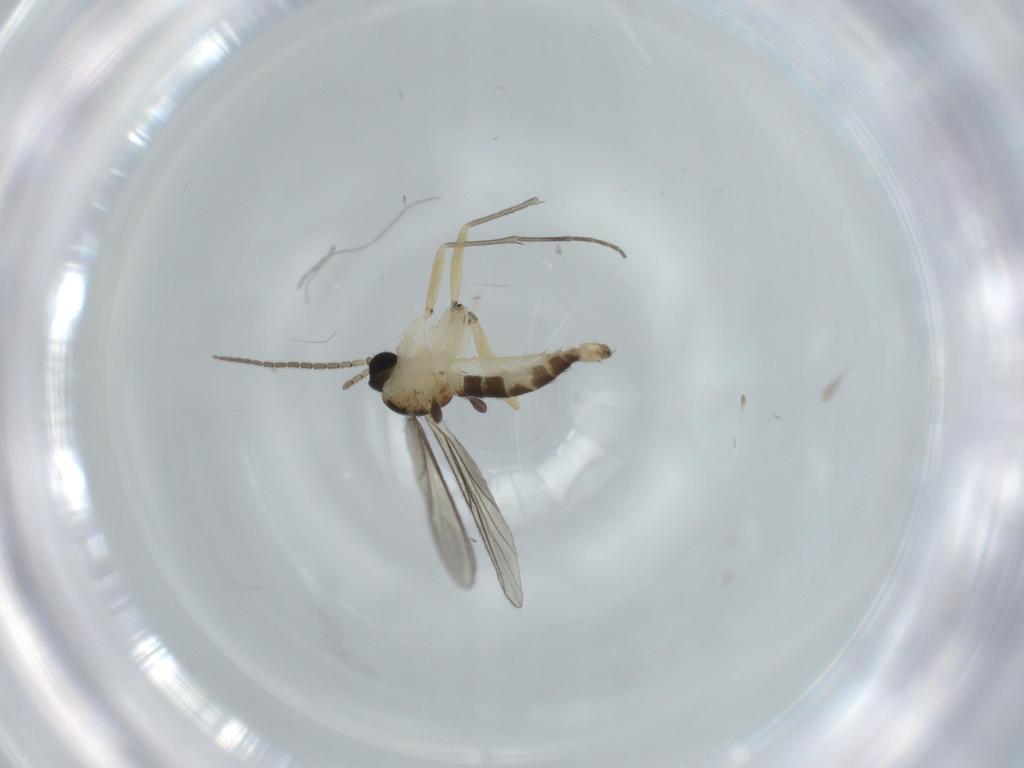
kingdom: Animalia
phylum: Arthropoda
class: Insecta
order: Diptera
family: Sciaridae
